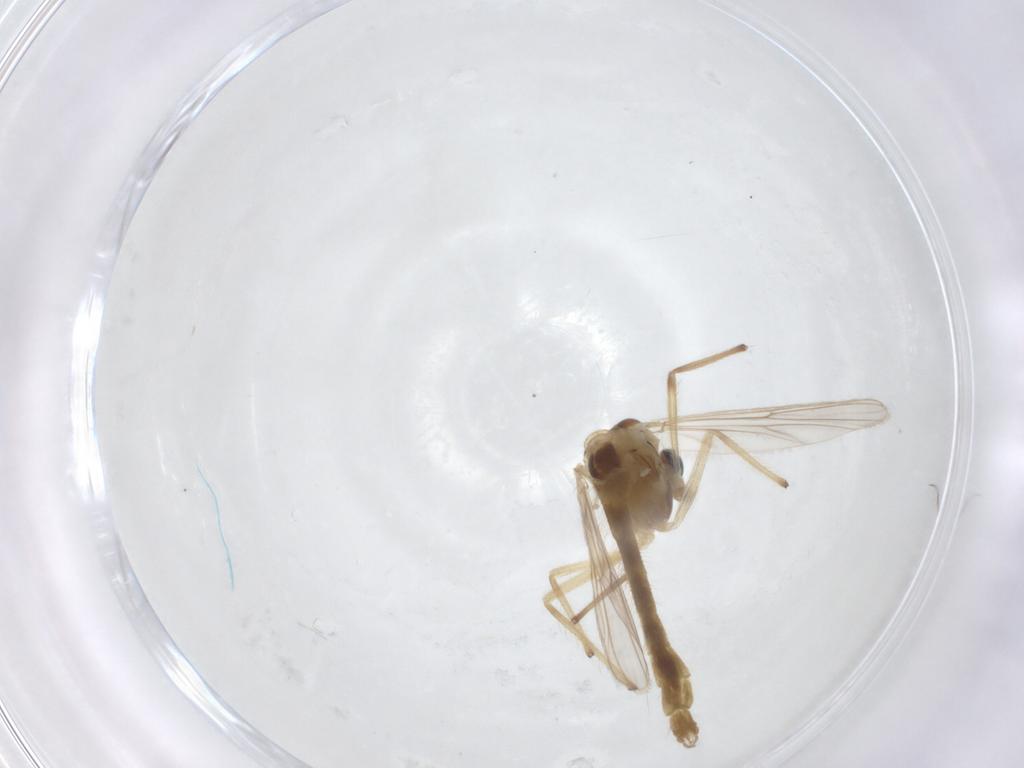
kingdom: Animalia
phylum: Arthropoda
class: Insecta
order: Diptera
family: Chironomidae
